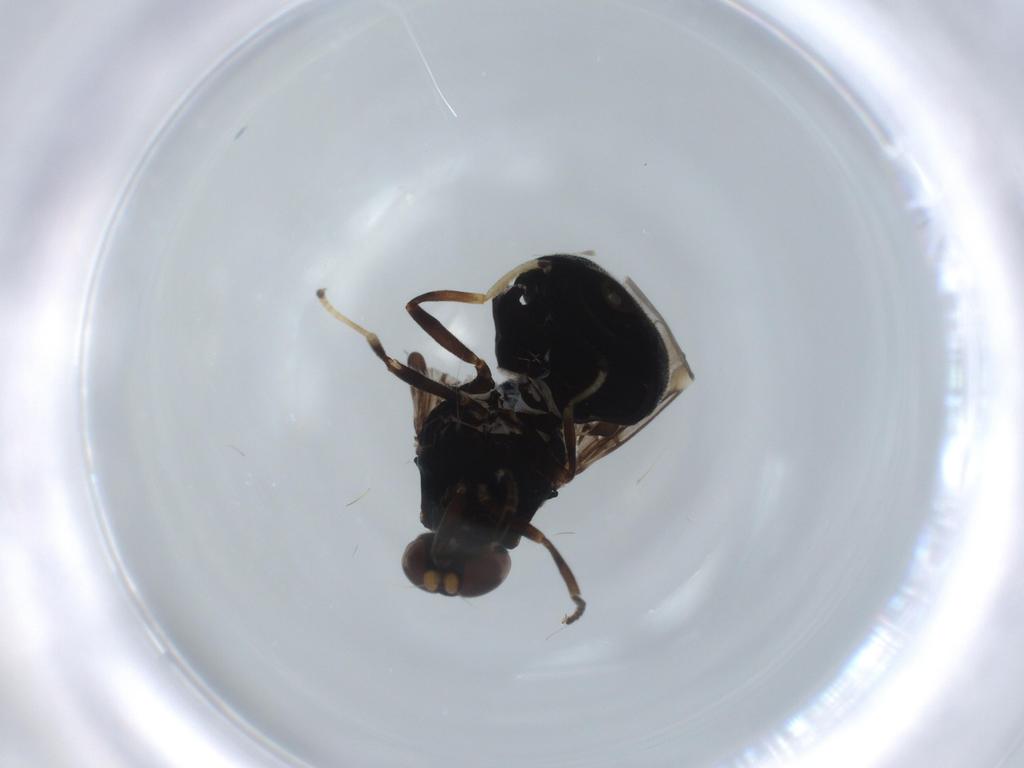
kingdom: Animalia
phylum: Arthropoda
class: Insecta
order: Diptera
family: Stratiomyidae
